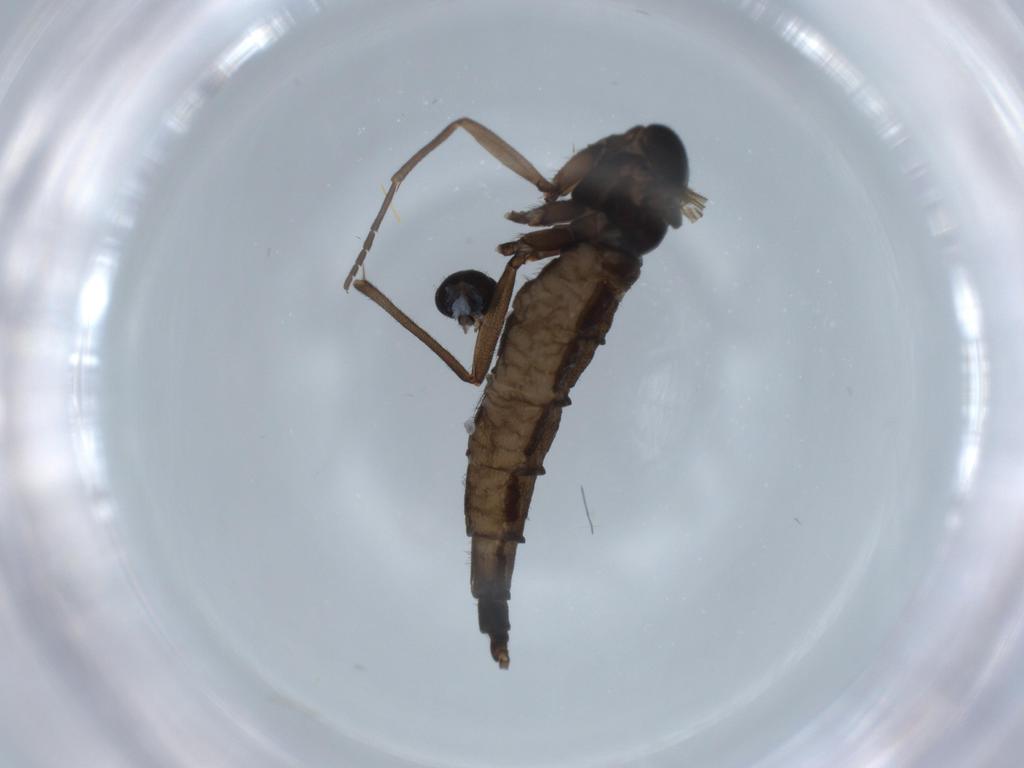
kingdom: Animalia
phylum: Arthropoda
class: Insecta
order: Diptera
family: Sciaridae
